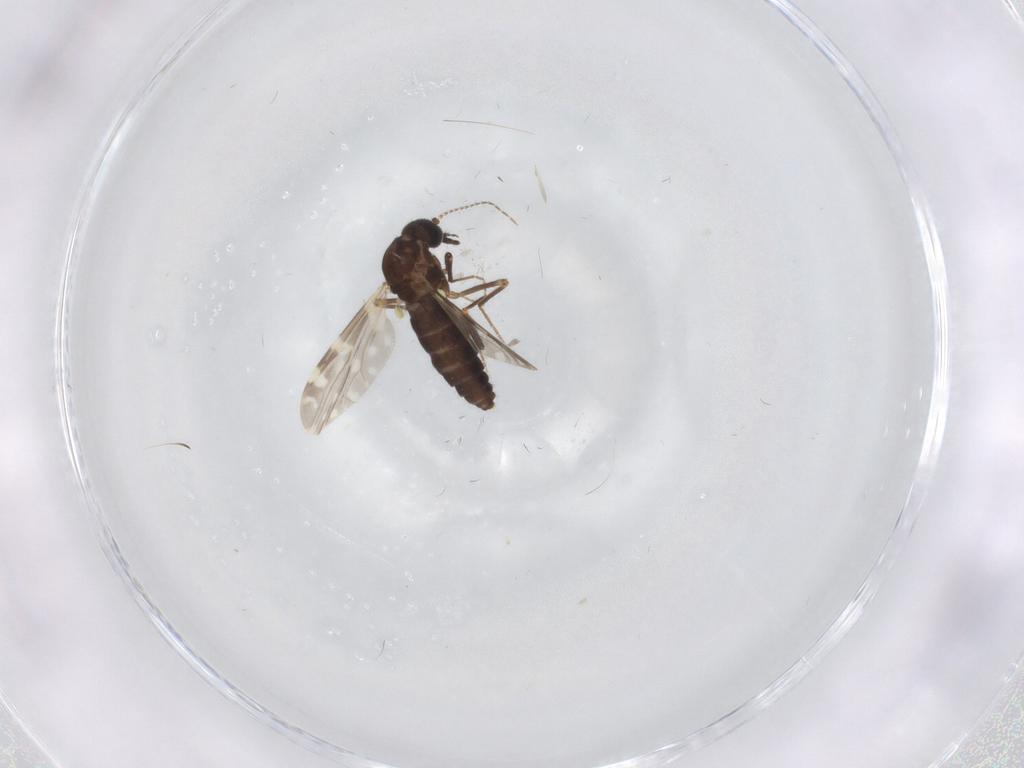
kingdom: Animalia
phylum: Arthropoda
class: Insecta
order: Diptera
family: Ceratopogonidae
